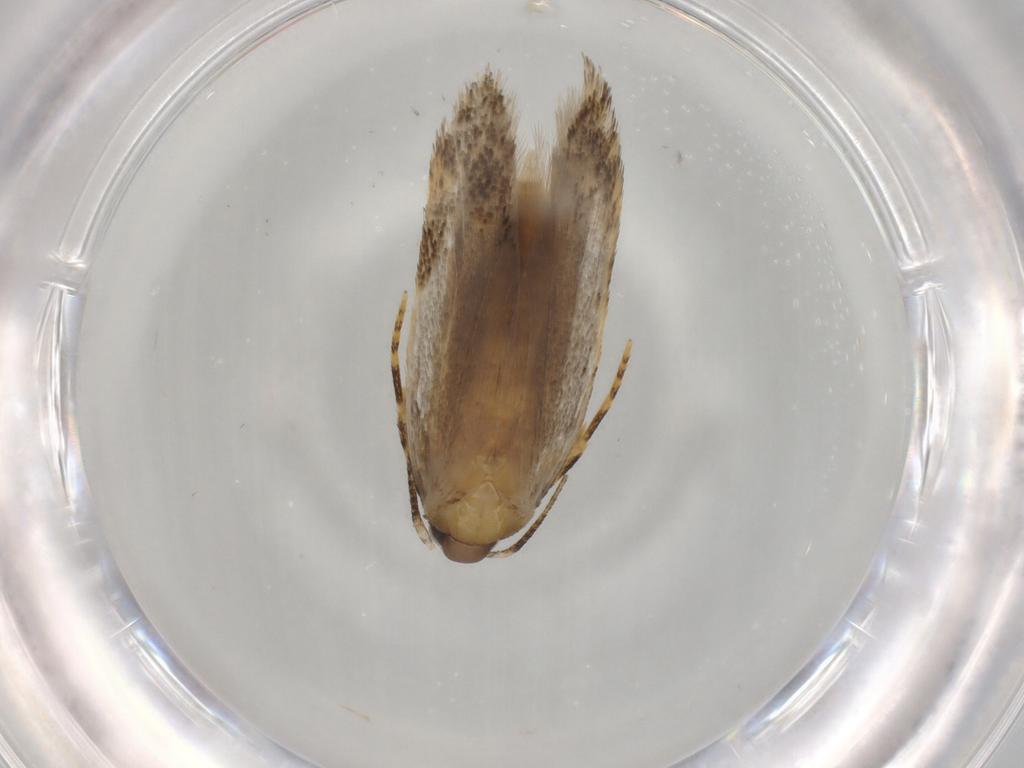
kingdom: Animalia
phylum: Arthropoda
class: Insecta
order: Lepidoptera
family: Autostichidae
